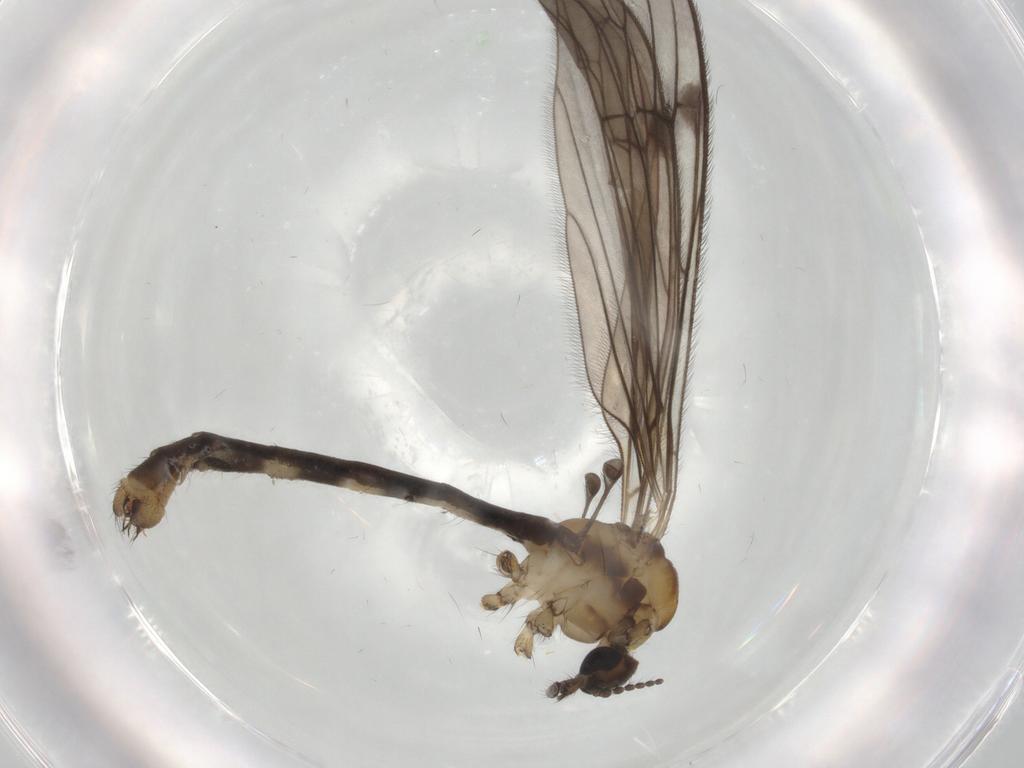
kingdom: Animalia
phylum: Arthropoda
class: Insecta
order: Diptera
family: Limoniidae
